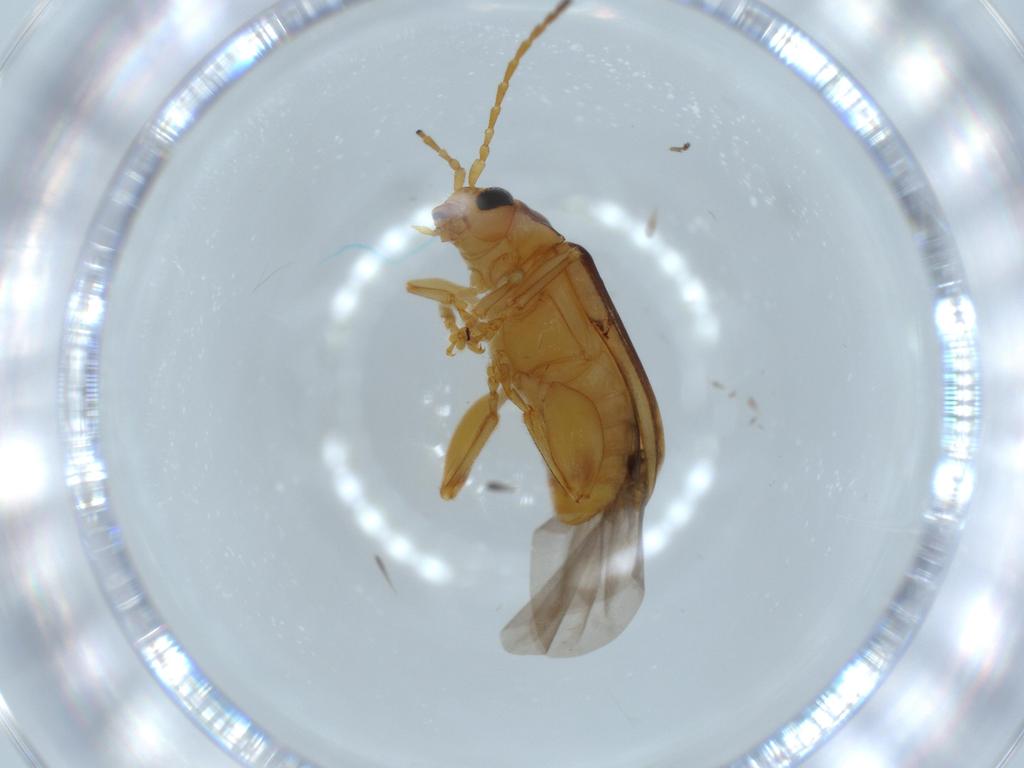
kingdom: Animalia
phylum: Arthropoda
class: Insecta
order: Coleoptera
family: Chrysomelidae
